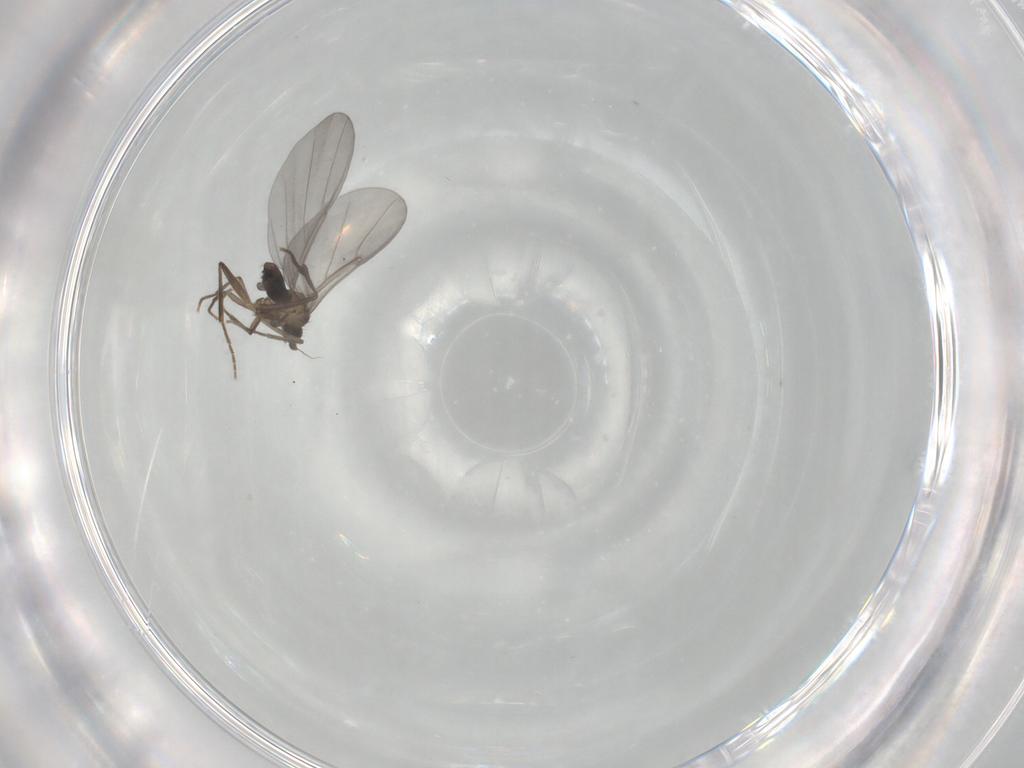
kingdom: Animalia
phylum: Arthropoda
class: Insecta
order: Diptera
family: Phoridae
